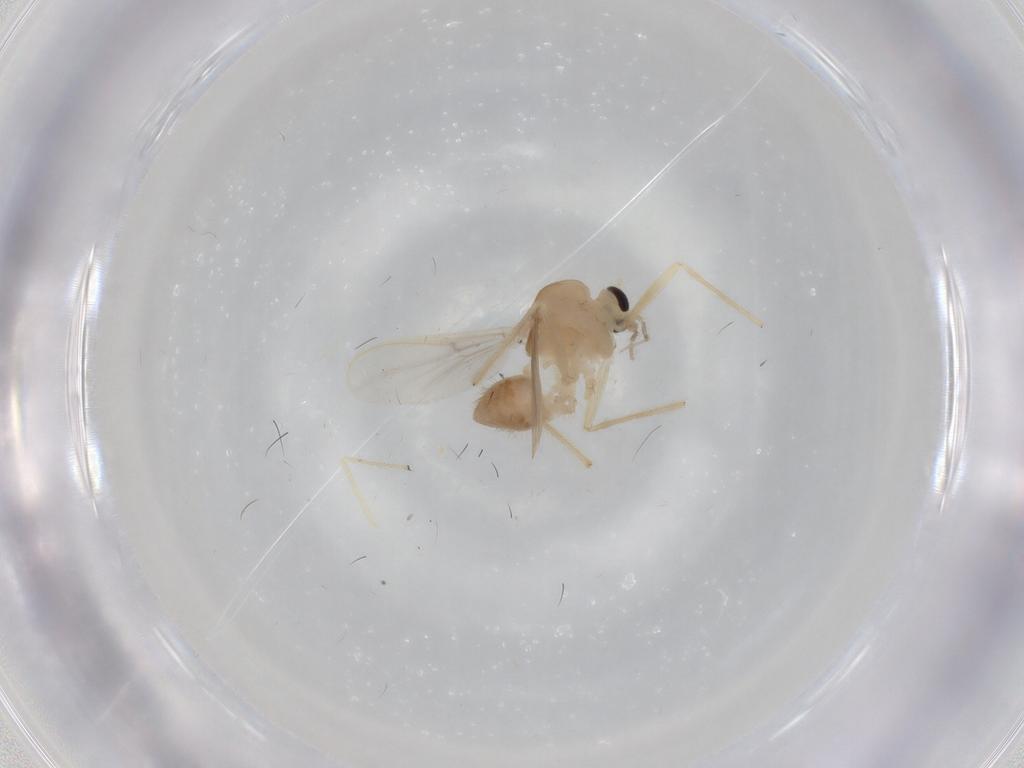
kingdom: Animalia
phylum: Arthropoda
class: Insecta
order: Diptera
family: Chironomidae
